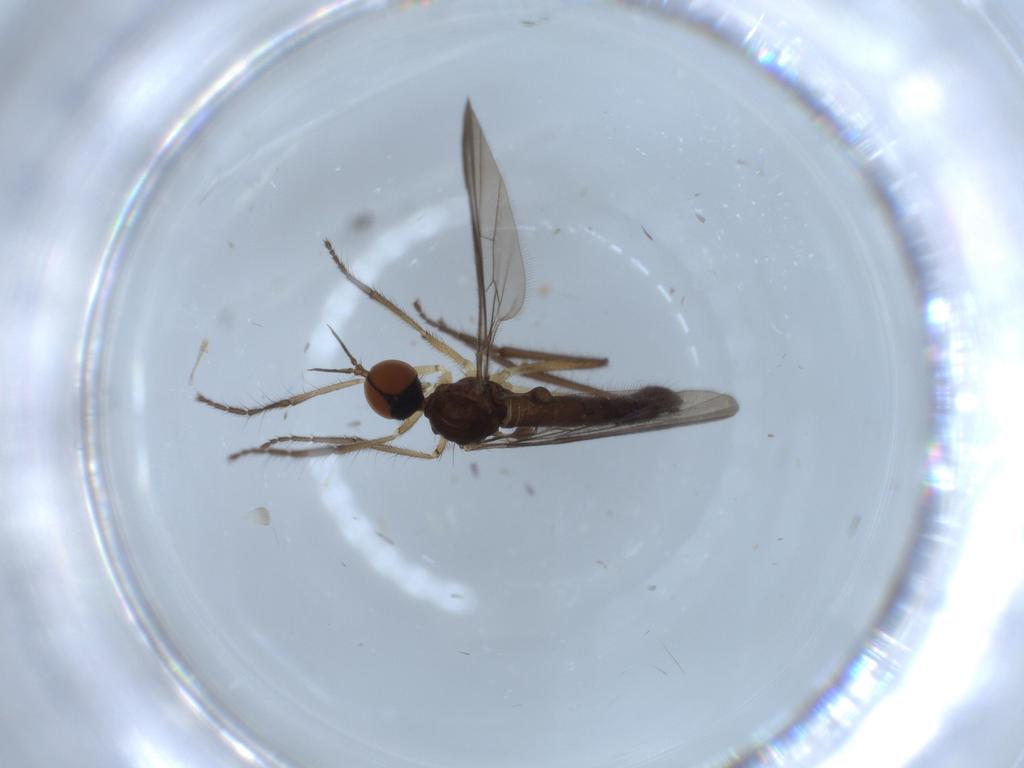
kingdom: Animalia
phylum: Arthropoda
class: Insecta
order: Diptera
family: Empididae
